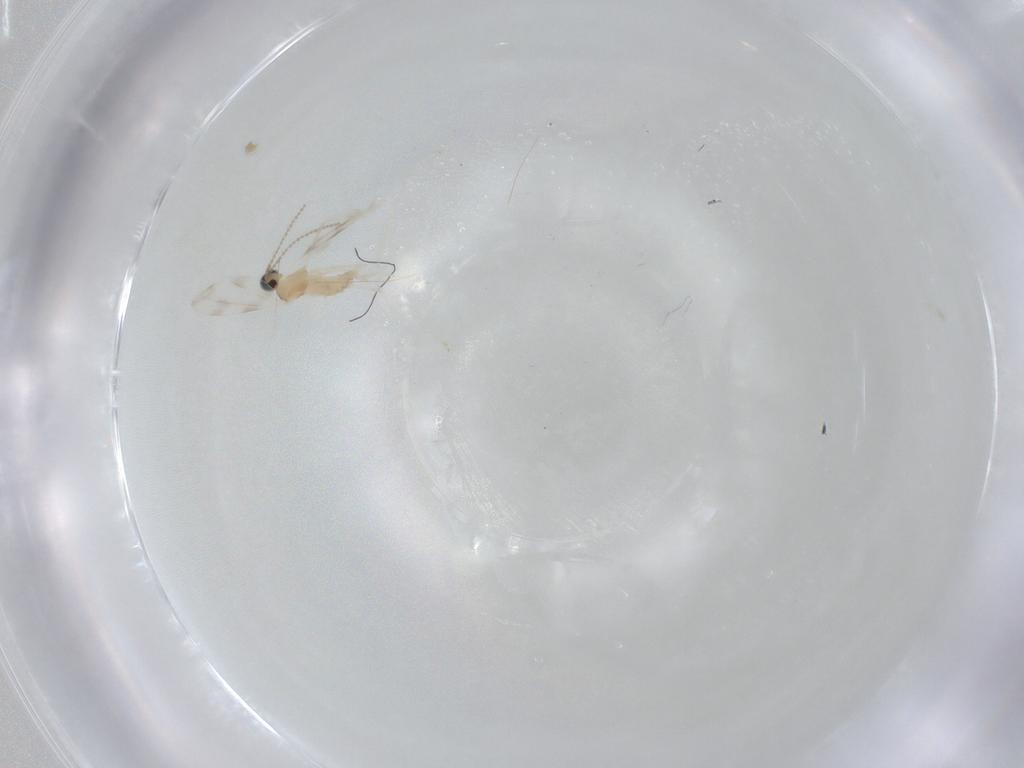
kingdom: Animalia
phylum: Arthropoda
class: Insecta
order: Diptera
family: Cecidomyiidae
